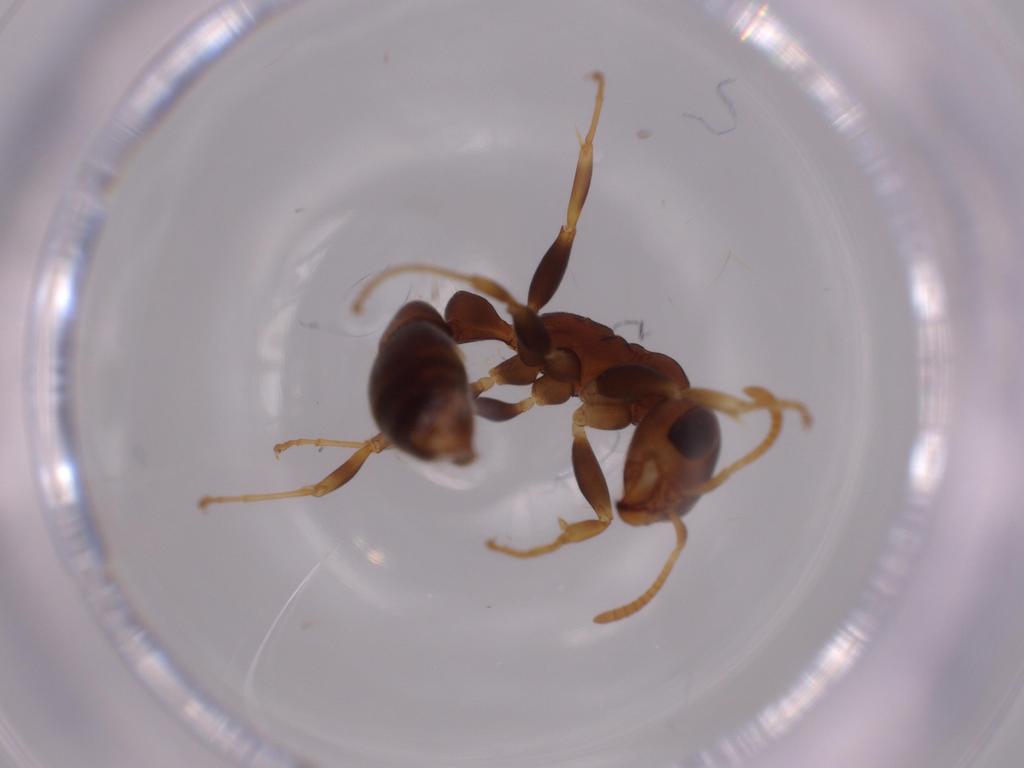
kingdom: Animalia
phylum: Arthropoda
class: Insecta
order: Hymenoptera
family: Formicidae
